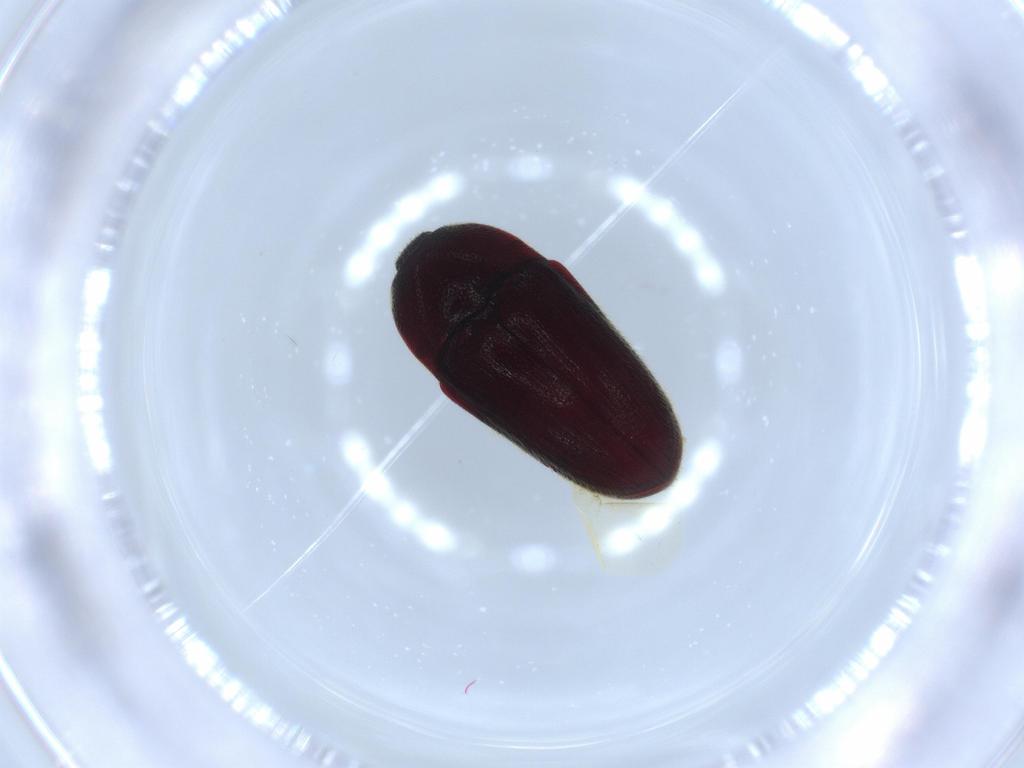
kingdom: Animalia
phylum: Arthropoda
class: Insecta
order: Coleoptera
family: Throscidae
